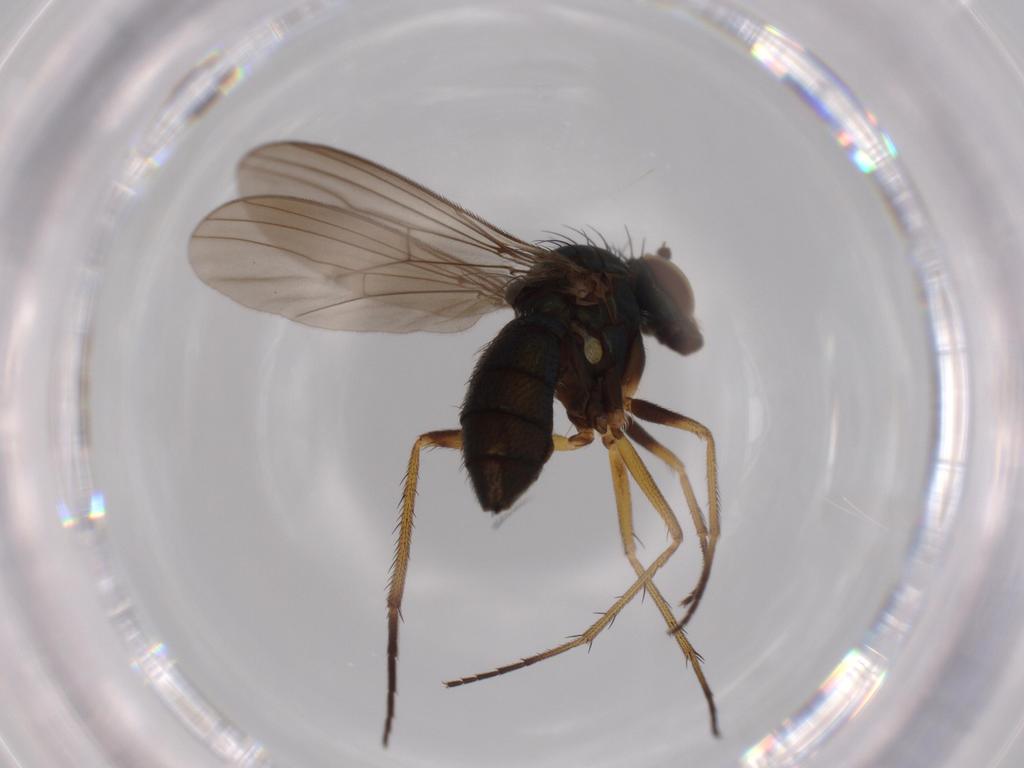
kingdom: Animalia
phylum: Arthropoda
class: Insecta
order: Diptera
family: Dolichopodidae
